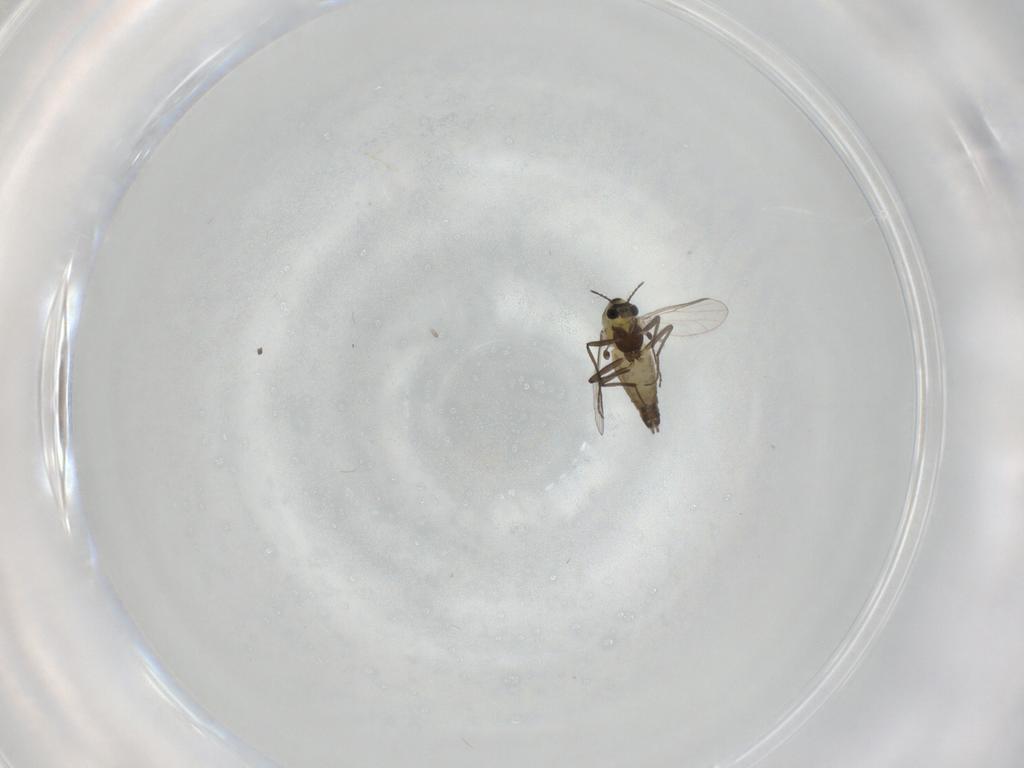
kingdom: Animalia
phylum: Arthropoda
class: Insecta
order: Diptera
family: Chironomidae
